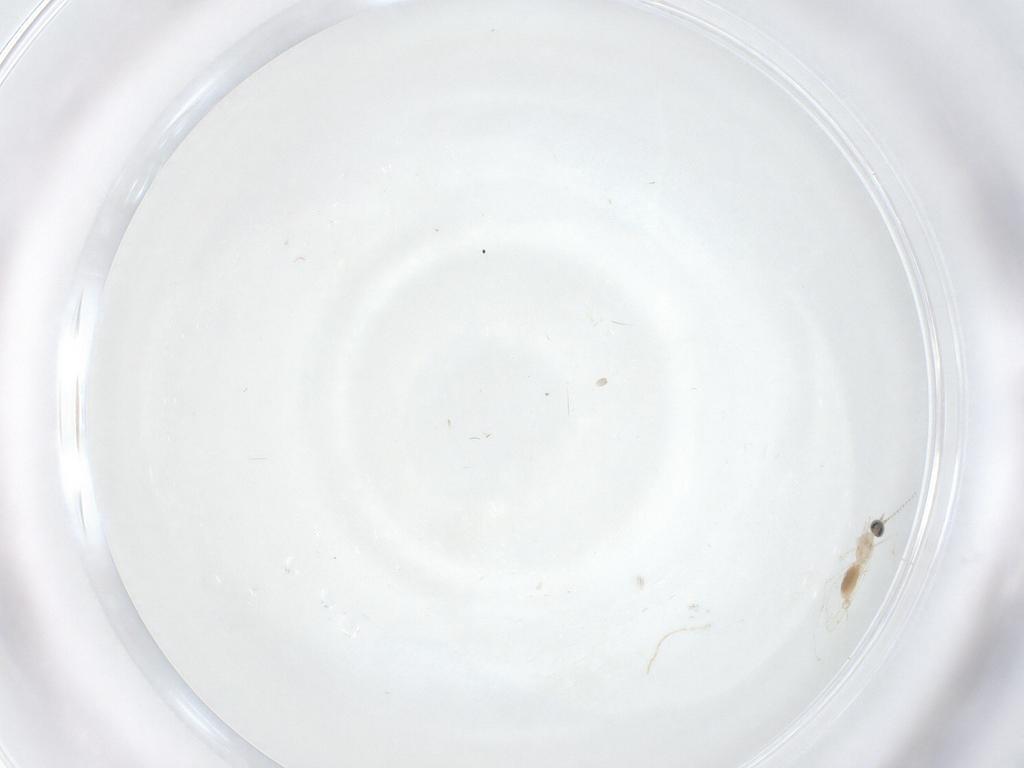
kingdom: Animalia
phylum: Arthropoda
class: Insecta
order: Diptera
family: Cecidomyiidae
